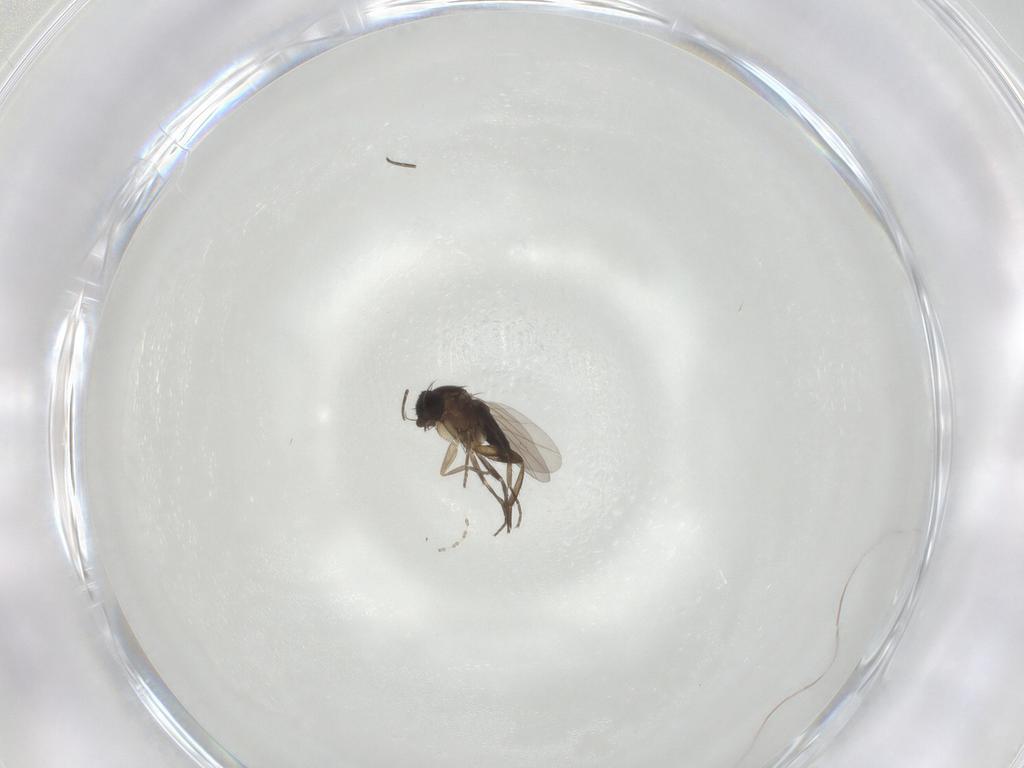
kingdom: Animalia
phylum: Arthropoda
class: Insecta
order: Diptera
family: Phoridae
